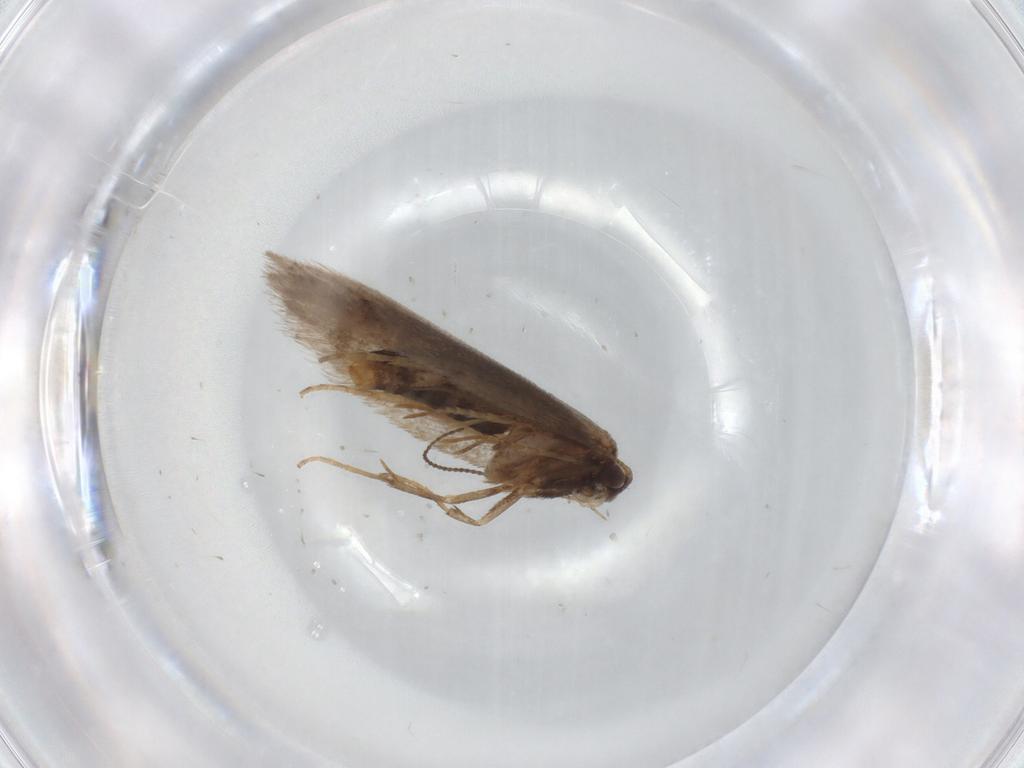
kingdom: Animalia
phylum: Arthropoda
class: Insecta
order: Lepidoptera
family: Nepticulidae
